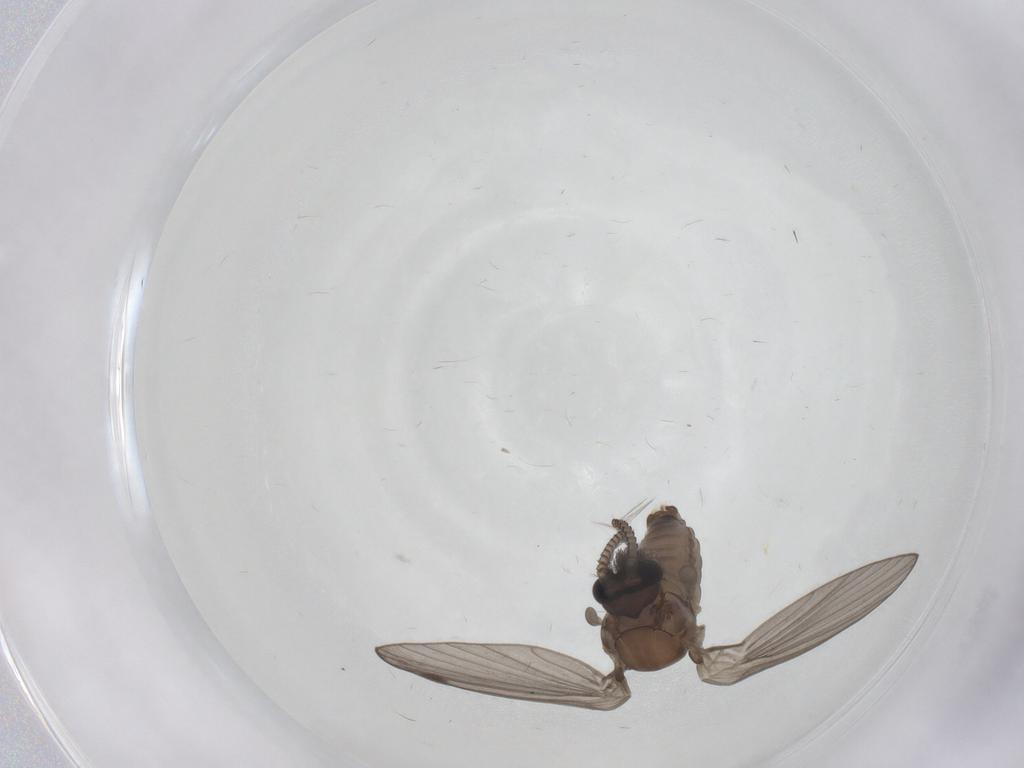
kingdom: Animalia
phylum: Arthropoda
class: Insecta
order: Diptera
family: Psychodidae
